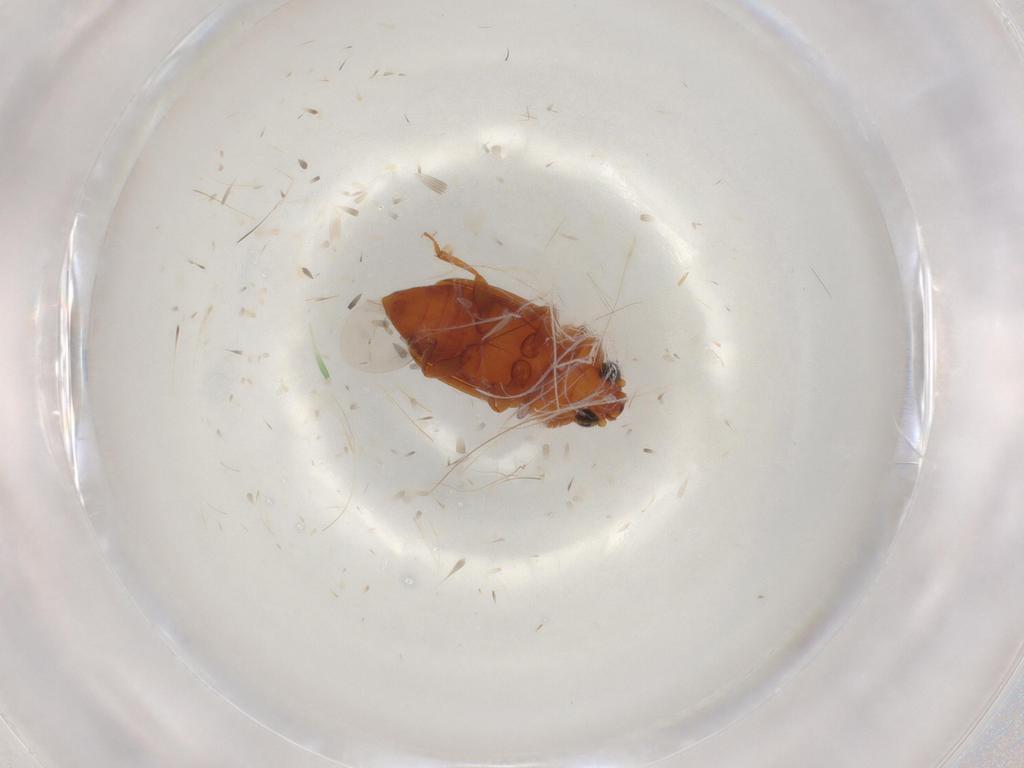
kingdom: Animalia
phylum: Arthropoda
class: Insecta
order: Coleoptera
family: Nitidulidae
